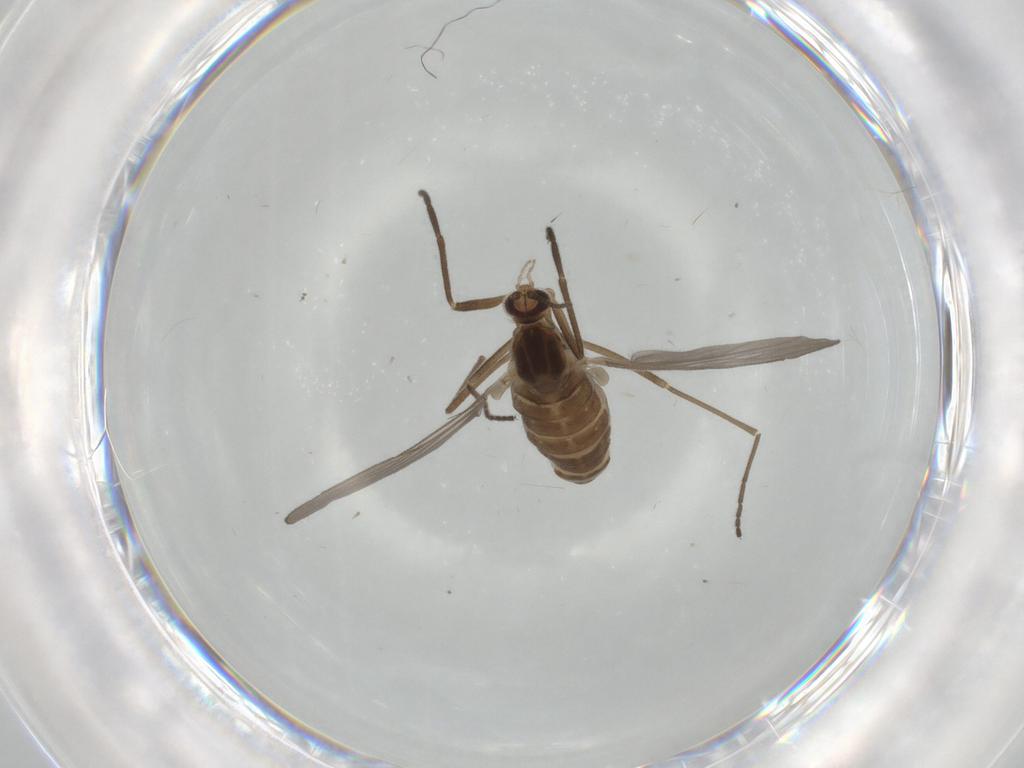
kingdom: Animalia
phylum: Arthropoda
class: Insecta
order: Diptera
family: Cecidomyiidae
